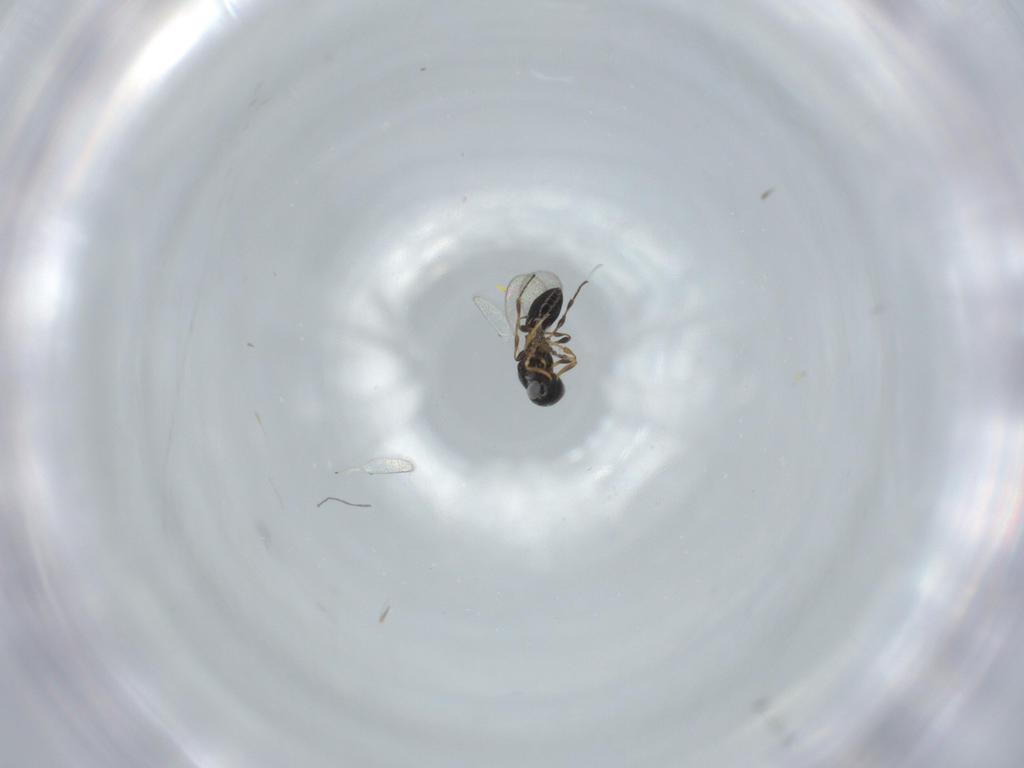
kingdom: Animalia
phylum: Arthropoda
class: Insecta
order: Hymenoptera
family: Platygastridae
